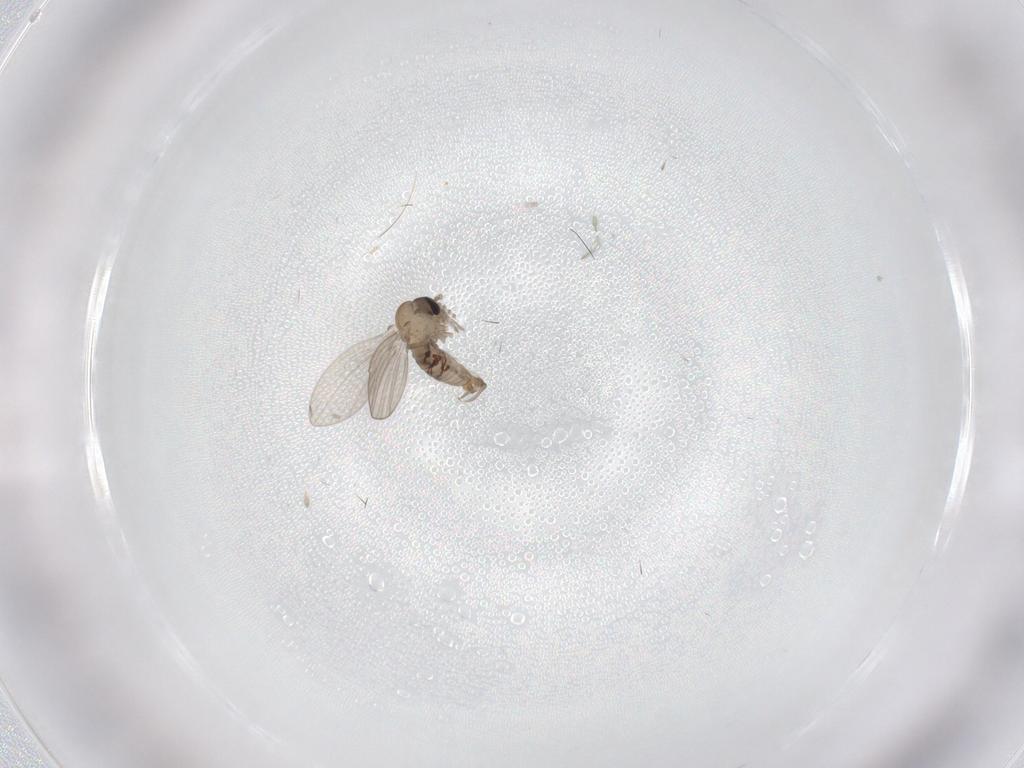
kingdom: Animalia
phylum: Arthropoda
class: Insecta
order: Diptera
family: Psychodidae
